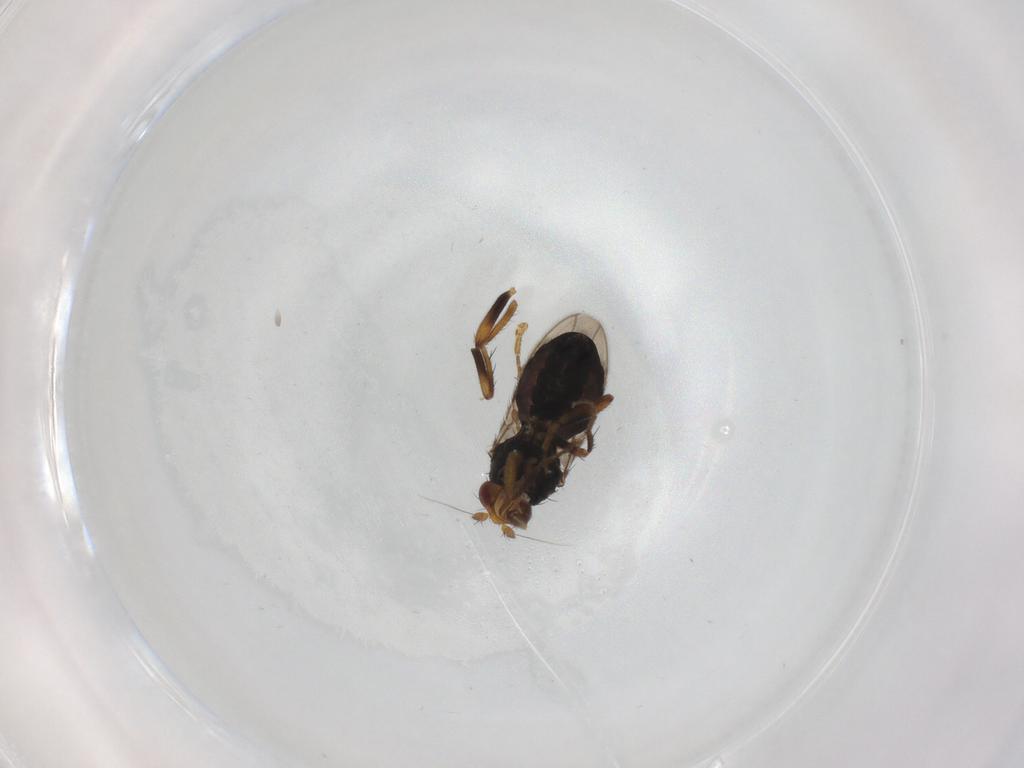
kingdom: Animalia
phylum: Arthropoda
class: Insecta
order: Diptera
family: Sphaeroceridae
